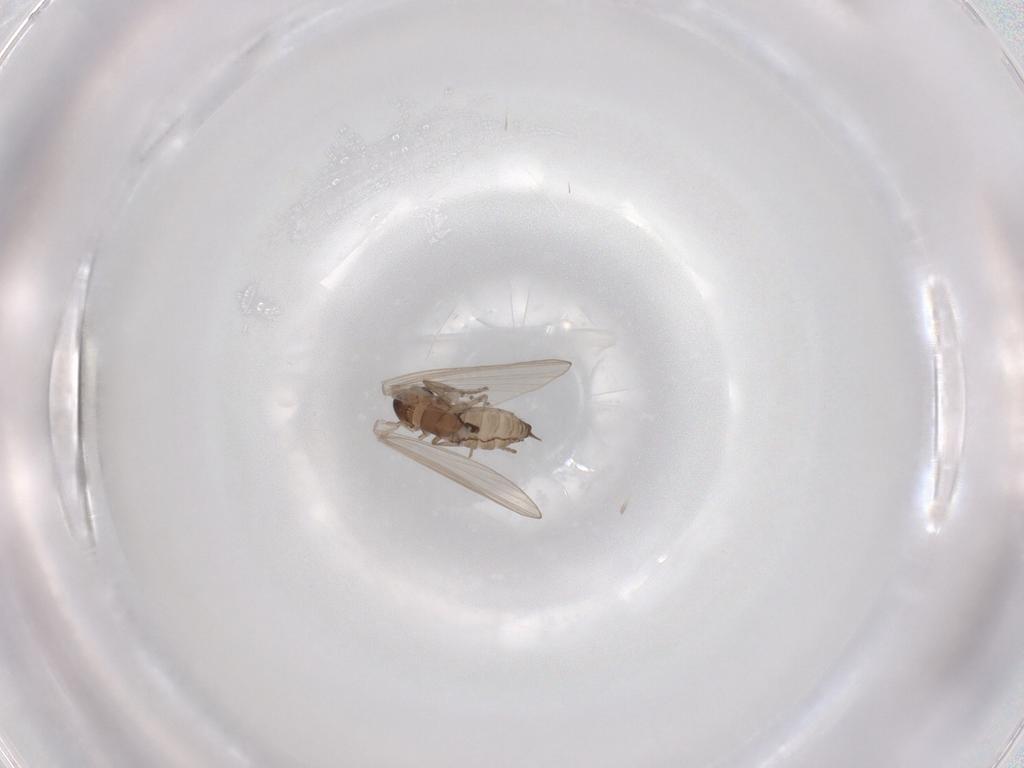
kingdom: Animalia
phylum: Arthropoda
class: Insecta
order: Diptera
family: Psychodidae
